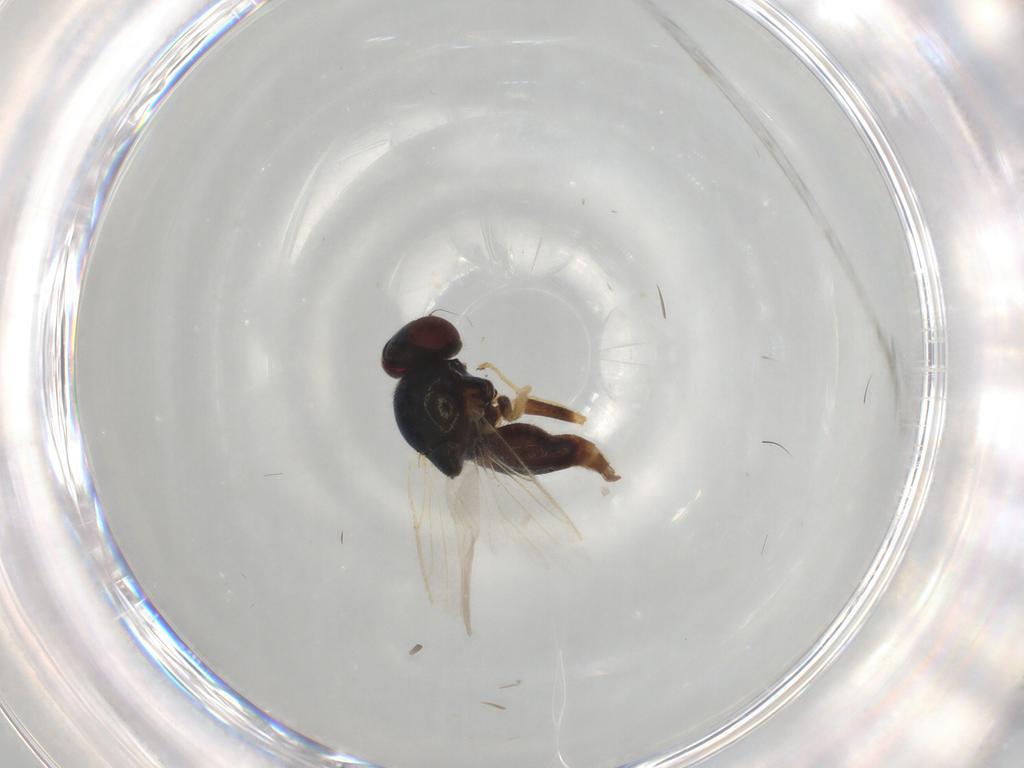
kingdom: Animalia
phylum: Arthropoda
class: Insecta
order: Diptera
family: Chloropidae
